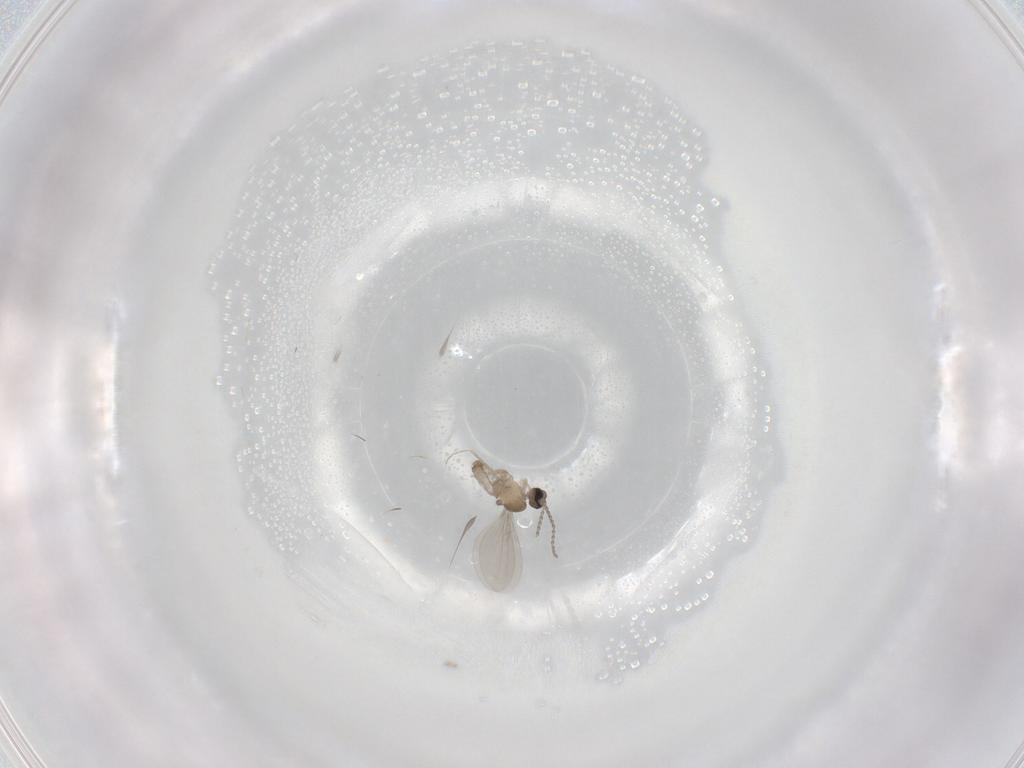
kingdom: Animalia
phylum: Arthropoda
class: Insecta
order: Diptera
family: Cecidomyiidae
